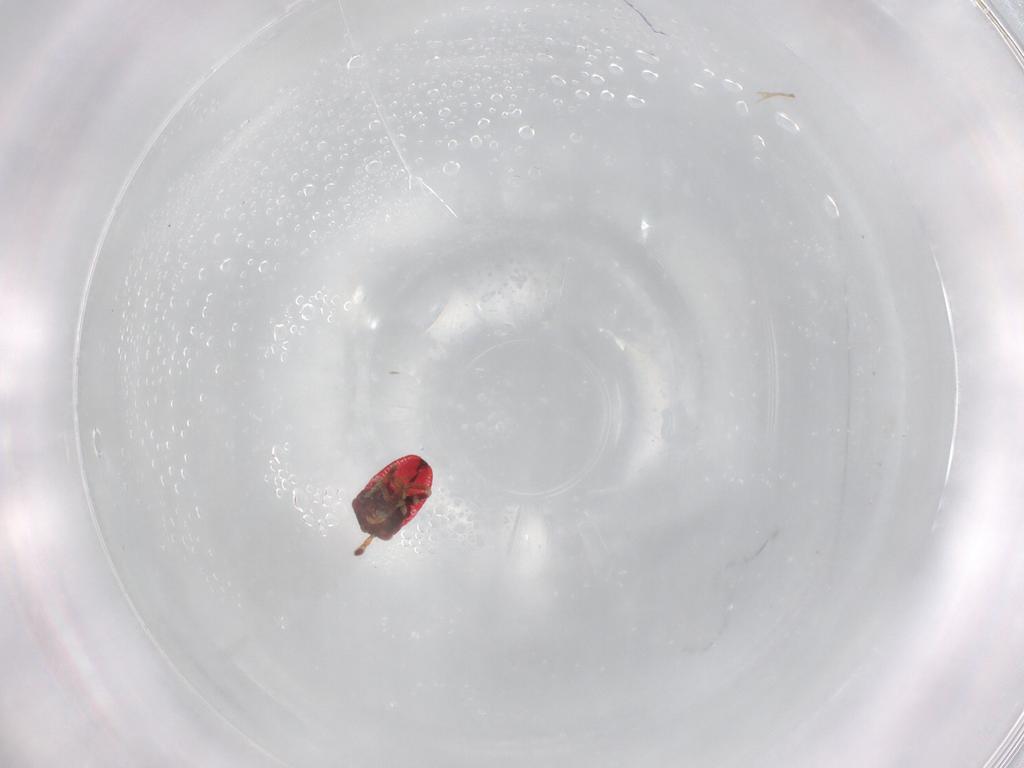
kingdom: Animalia
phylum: Arthropoda
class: Insecta
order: Hemiptera
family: Geocoridae
